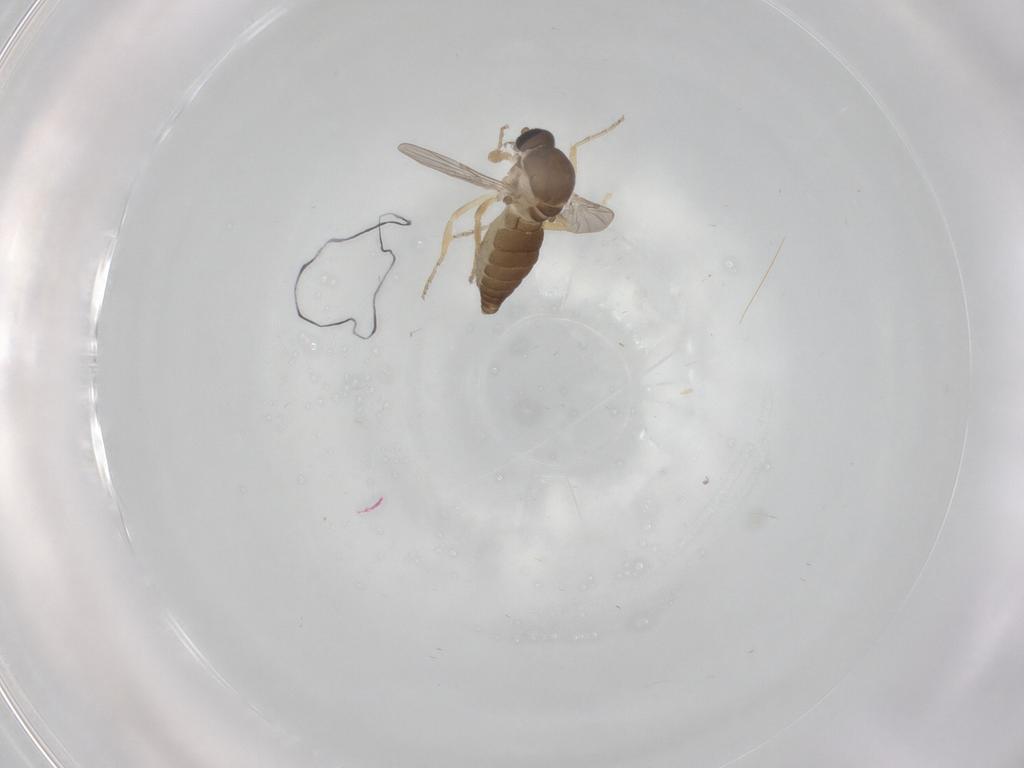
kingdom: Animalia
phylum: Arthropoda
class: Insecta
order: Diptera
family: Ceratopogonidae
